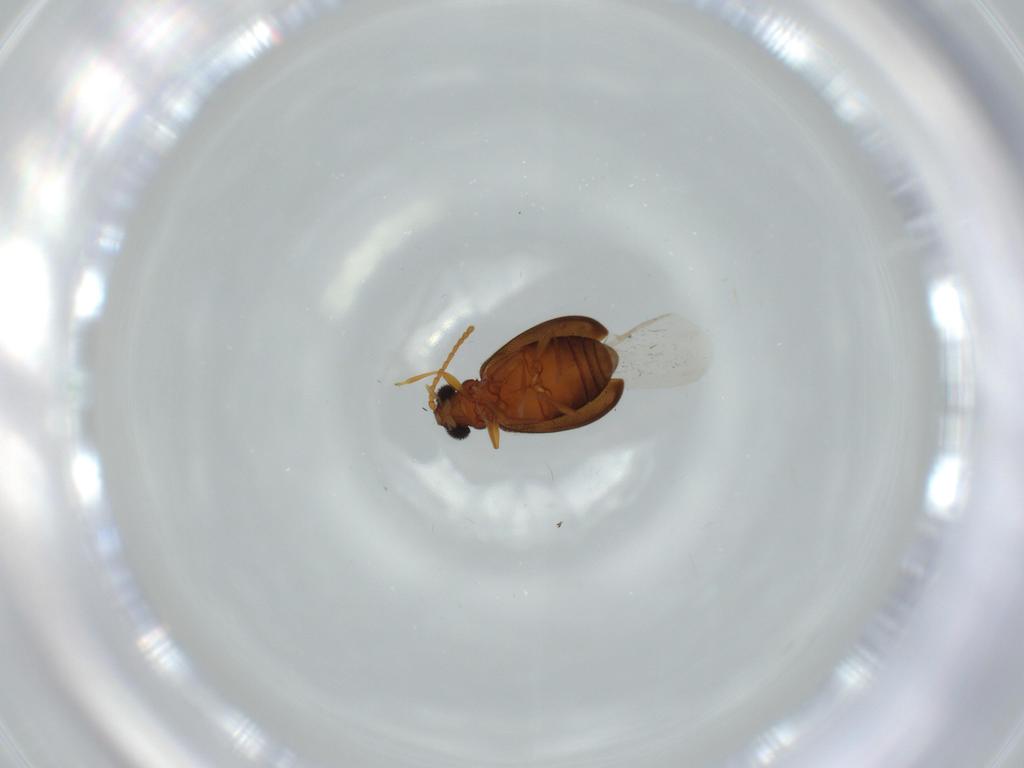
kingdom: Animalia
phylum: Arthropoda
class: Insecta
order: Coleoptera
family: Aderidae
